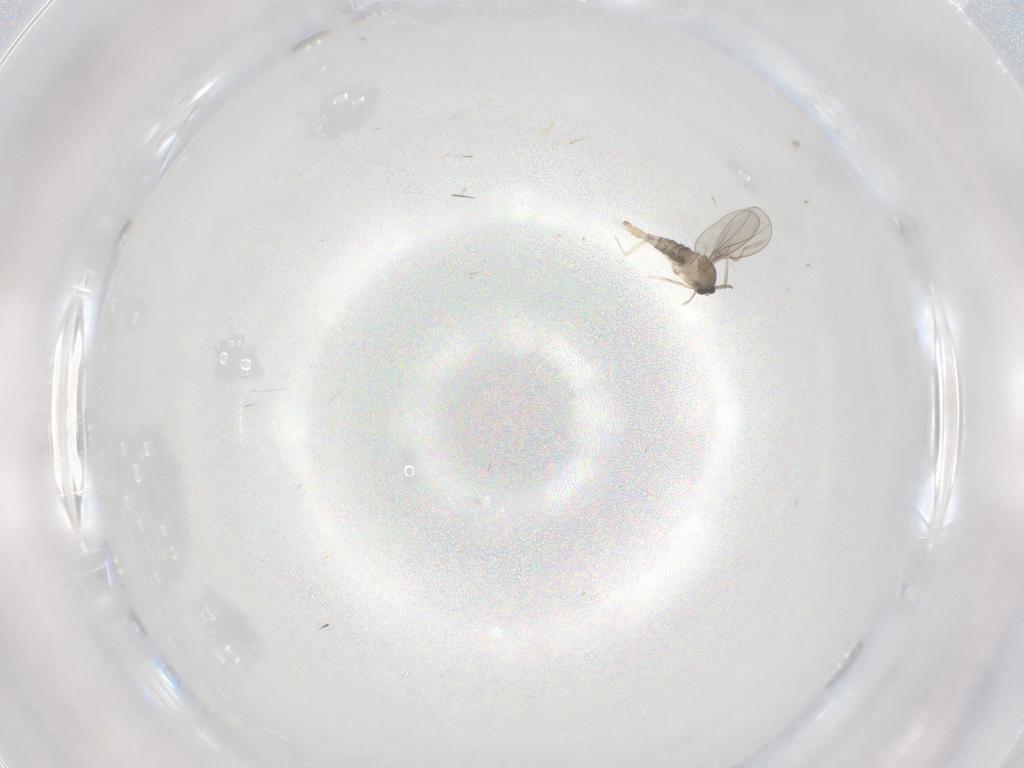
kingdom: Animalia
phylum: Arthropoda
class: Insecta
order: Diptera
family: Cecidomyiidae
